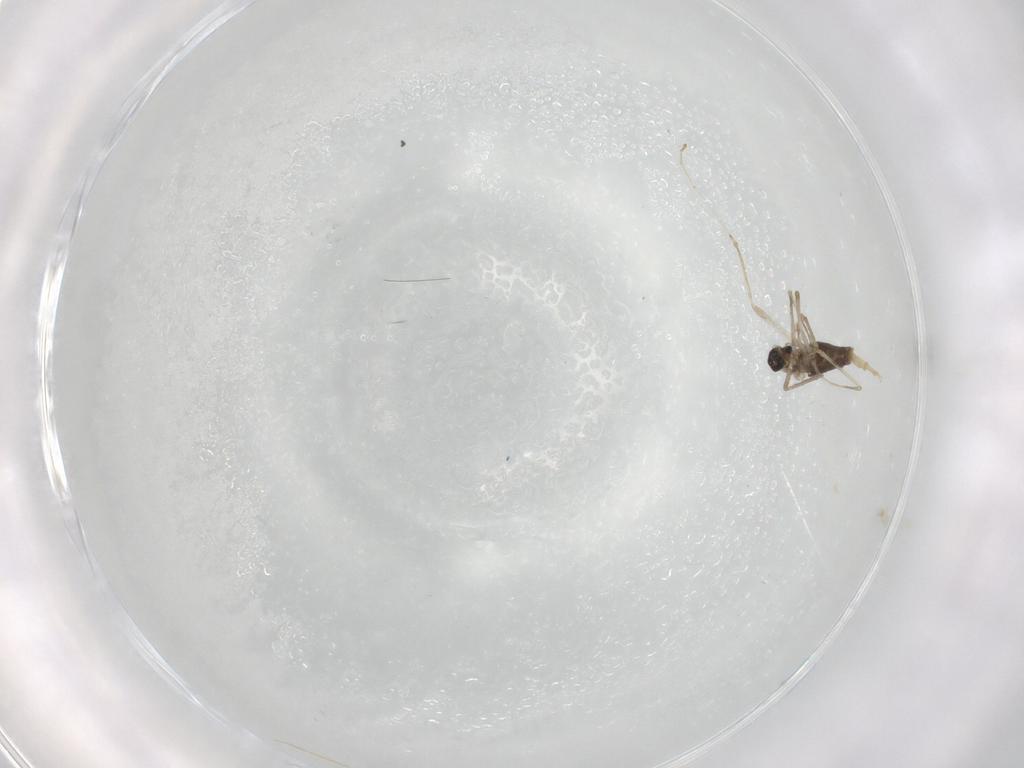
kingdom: Animalia
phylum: Arthropoda
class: Insecta
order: Diptera
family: Cecidomyiidae
